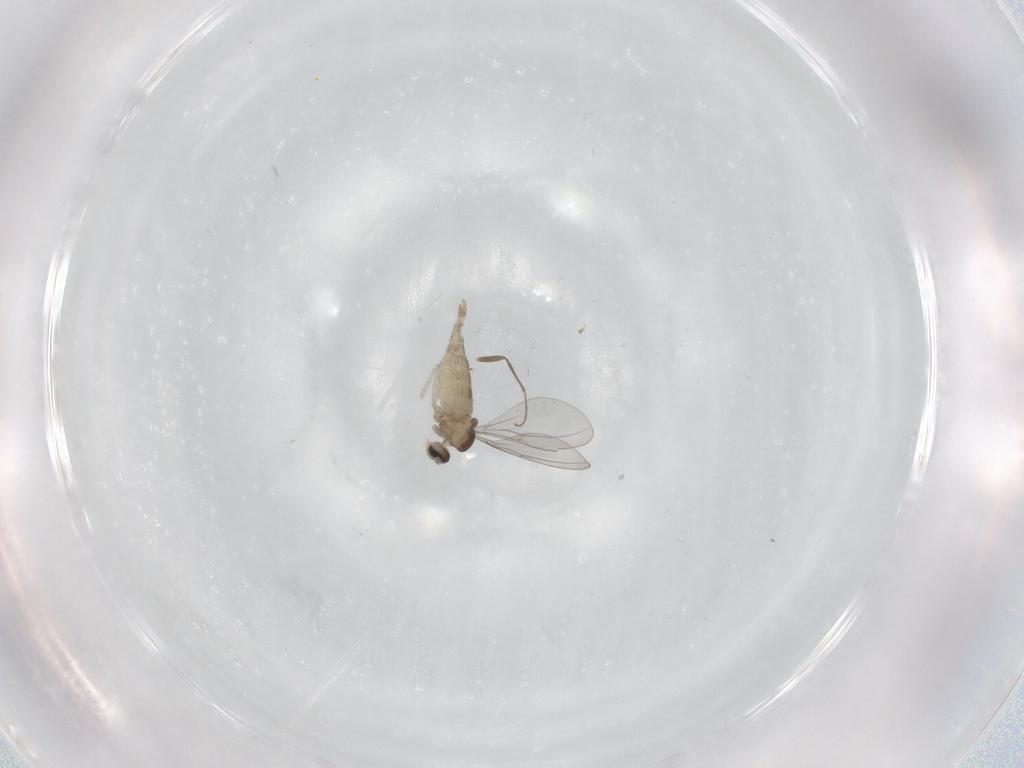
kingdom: Animalia
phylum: Arthropoda
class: Insecta
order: Diptera
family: Cecidomyiidae
